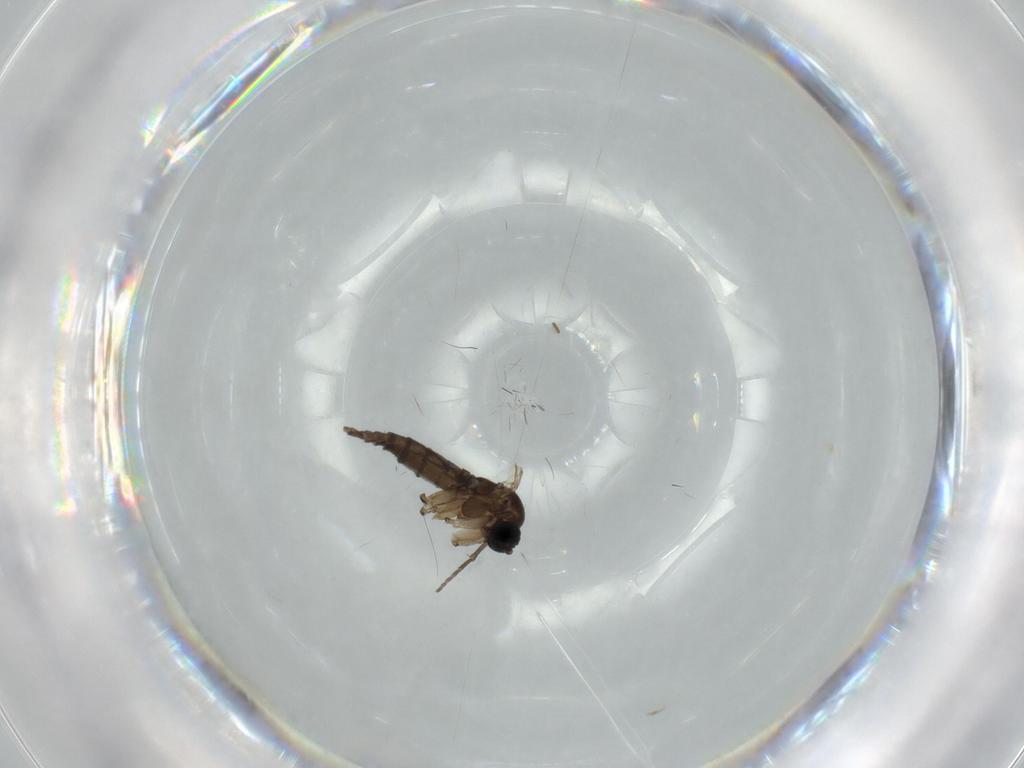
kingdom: Animalia
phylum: Arthropoda
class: Insecta
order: Diptera
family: Sciaridae
